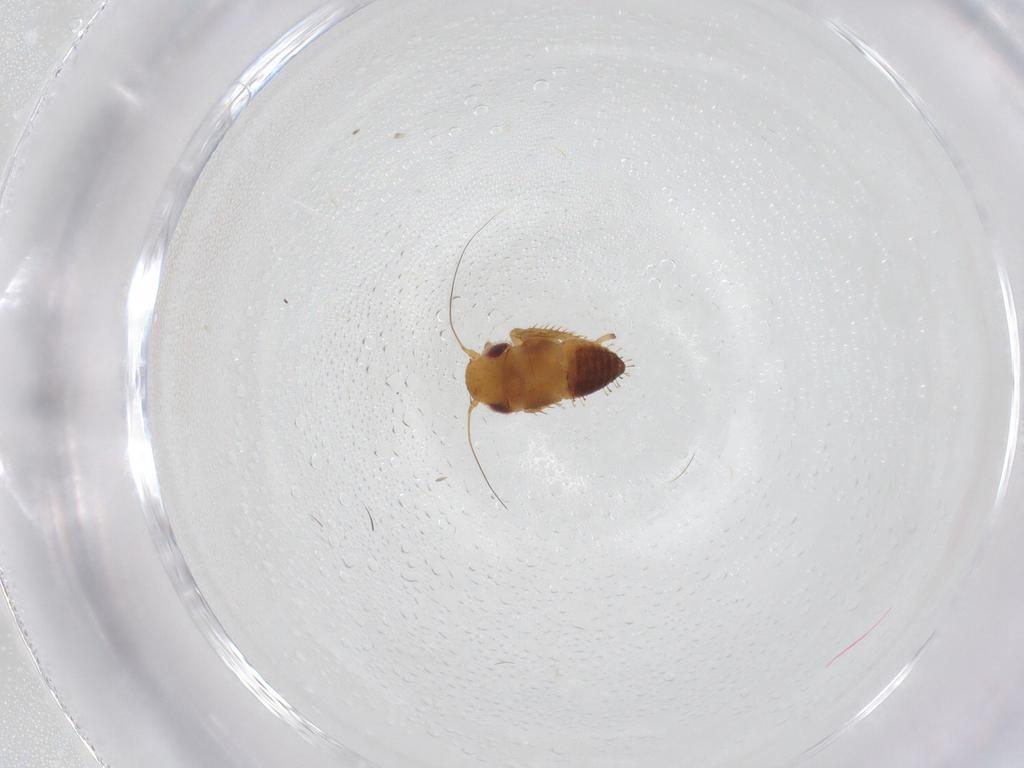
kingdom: Animalia
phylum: Arthropoda
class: Insecta
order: Hemiptera
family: Cicadellidae
